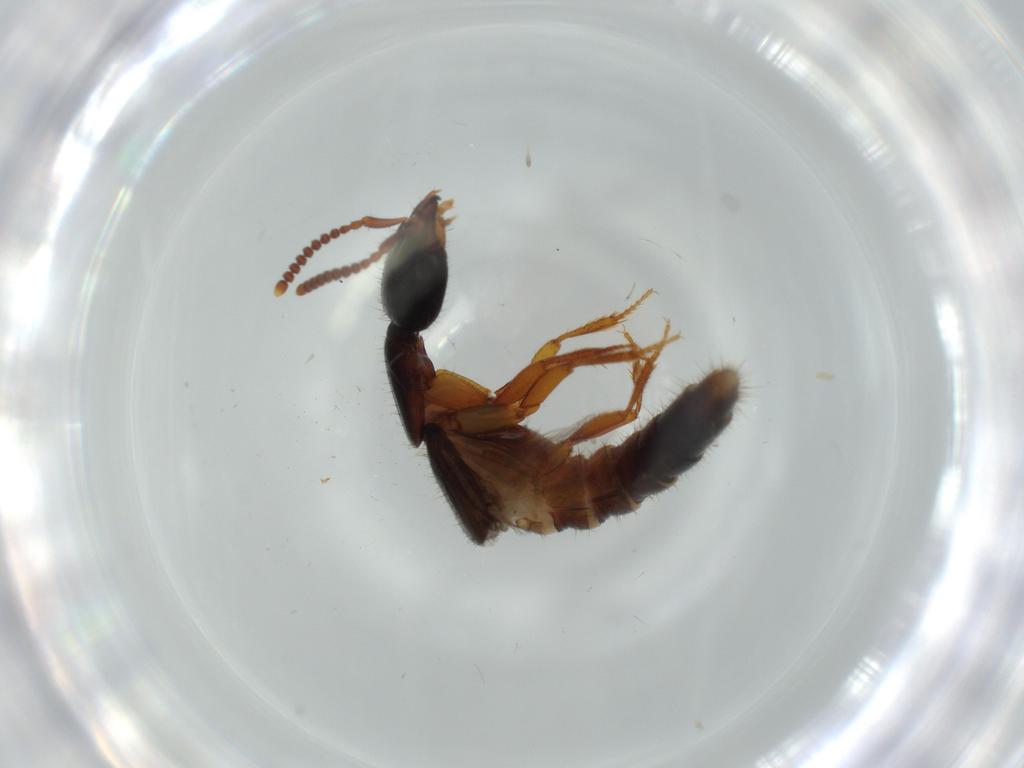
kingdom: Animalia
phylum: Arthropoda
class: Insecta
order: Coleoptera
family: Staphylinidae
